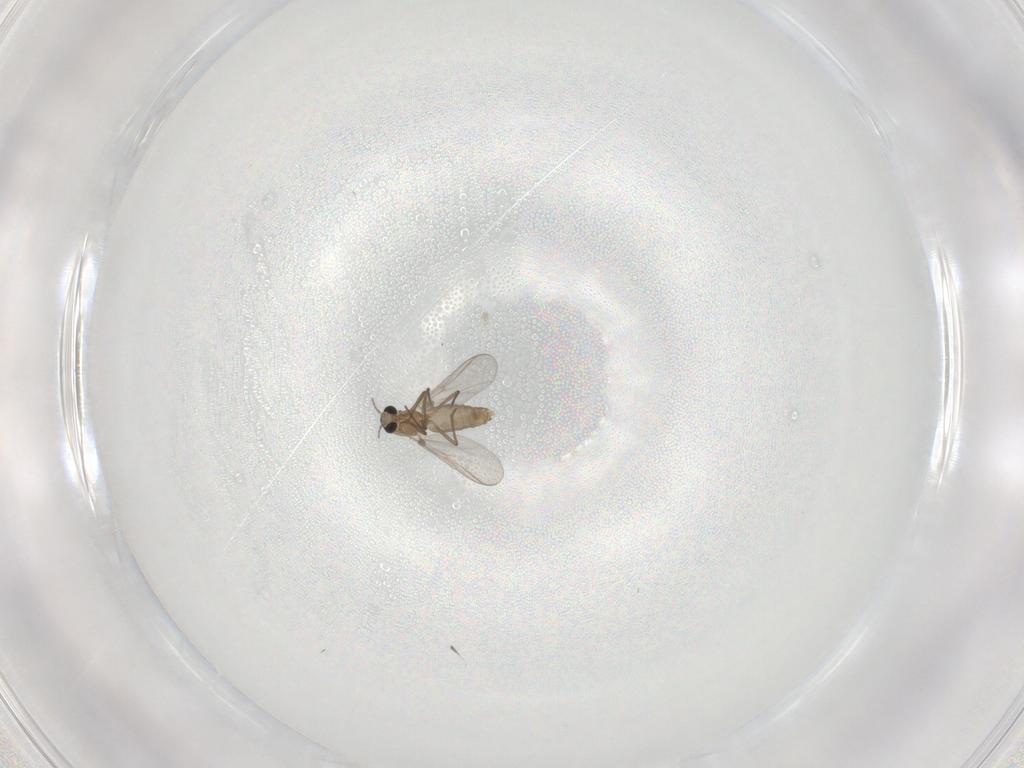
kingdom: Animalia
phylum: Arthropoda
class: Insecta
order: Diptera
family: Chironomidae
